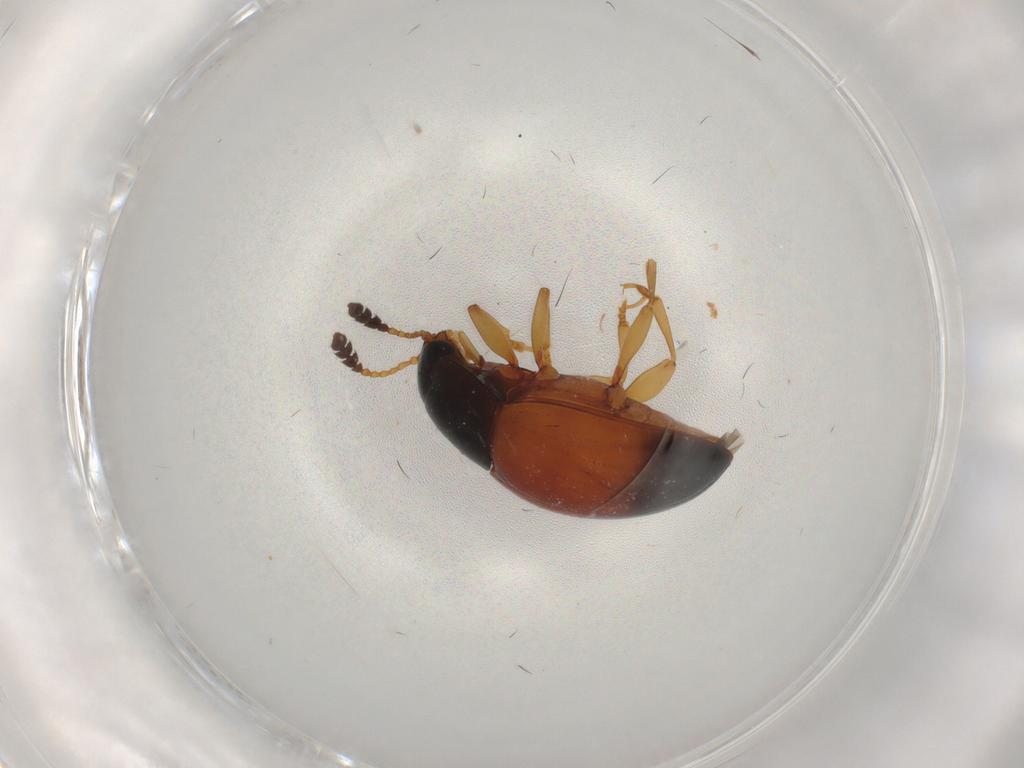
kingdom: Animalia
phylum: Arthropoda
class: Insecta
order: Coleoptera
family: Erotylidae
